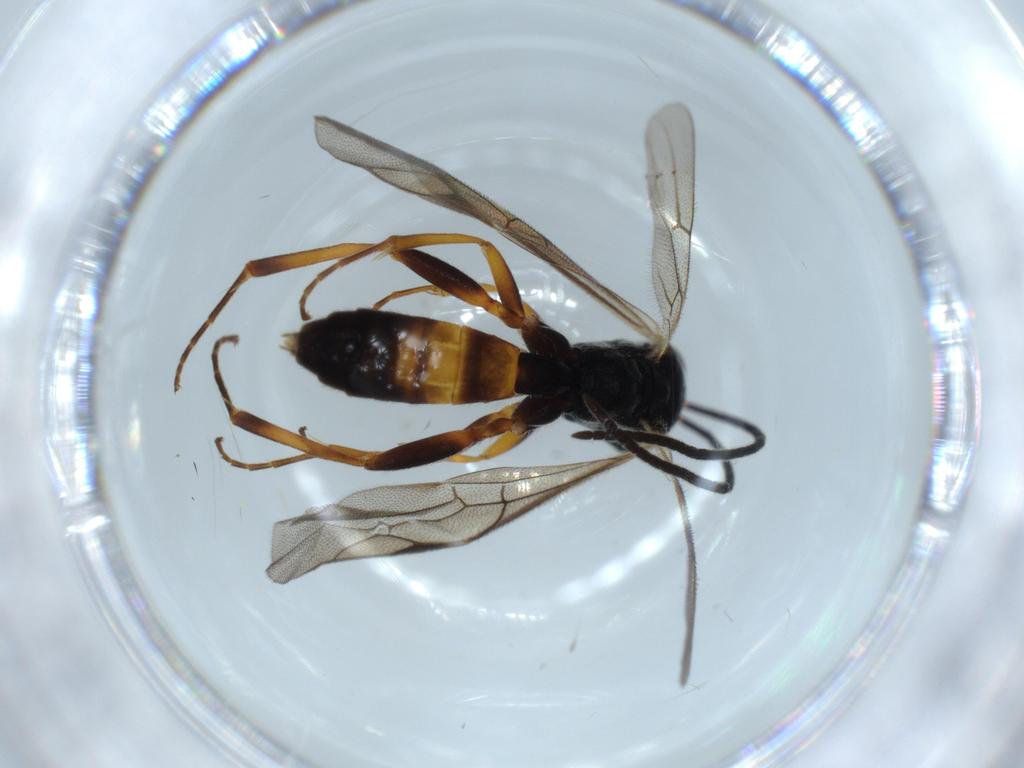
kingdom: Animalia
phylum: Arthropoda
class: Insecta
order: Hymenoptera
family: Ichneumonidae
